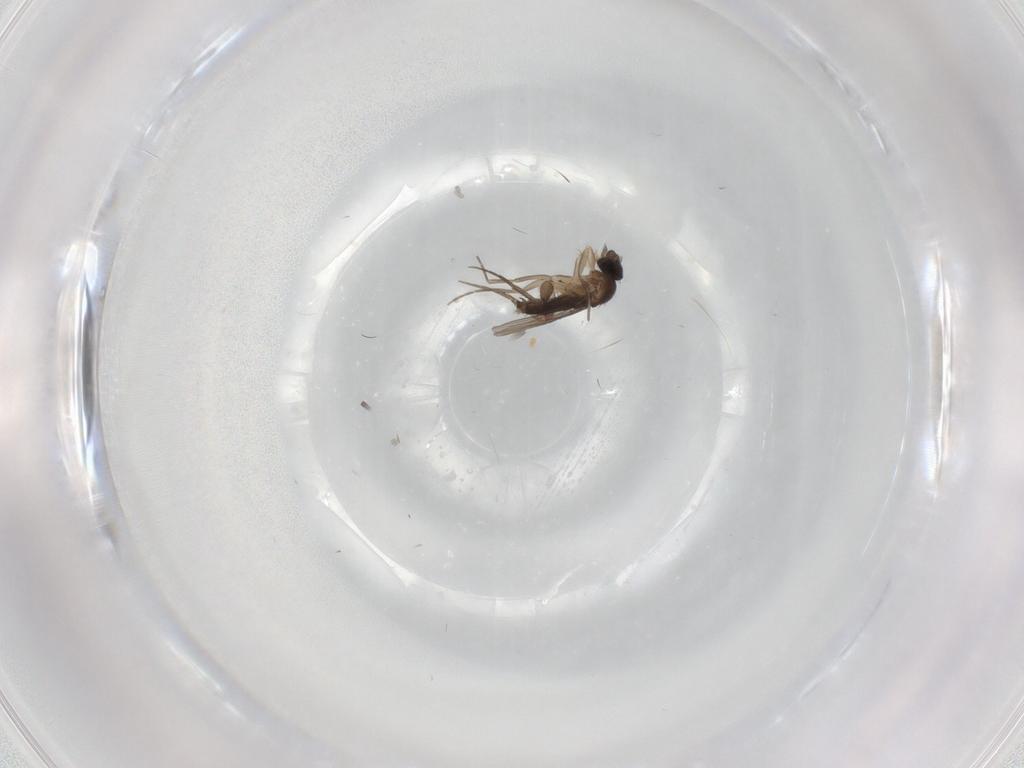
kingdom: Animalia
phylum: Arthropoda
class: Insecta
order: Diptera
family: Phoridae
